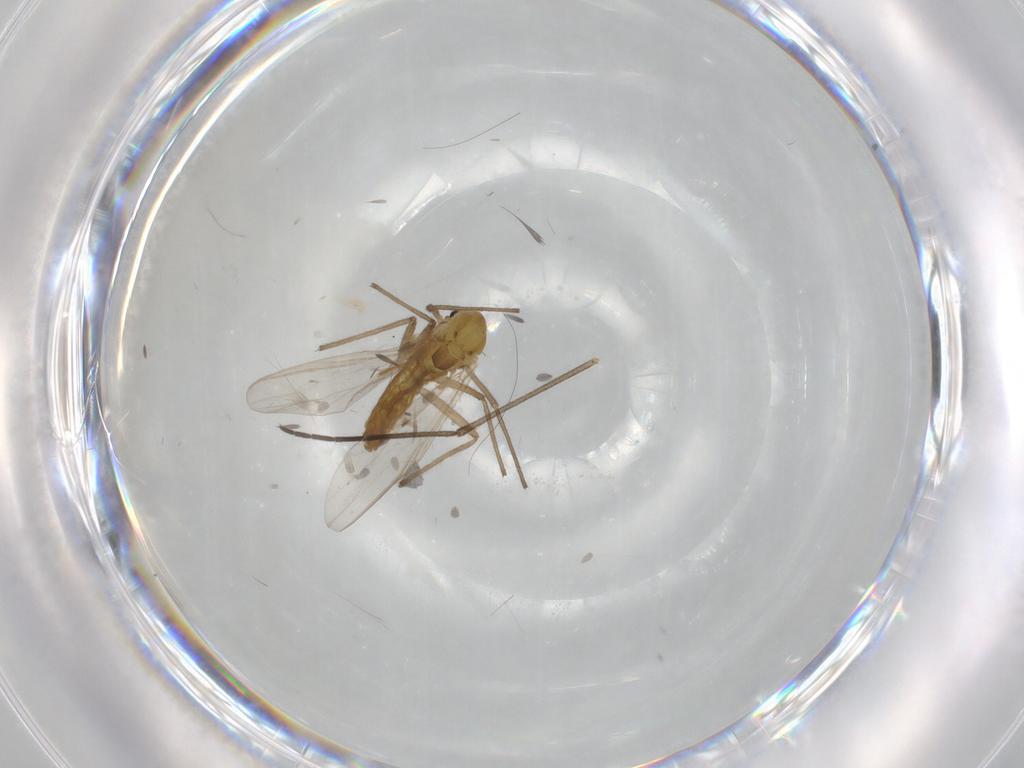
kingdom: Animalia
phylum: Arthropoda
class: Insecta
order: Diptera
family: Chironomidae
